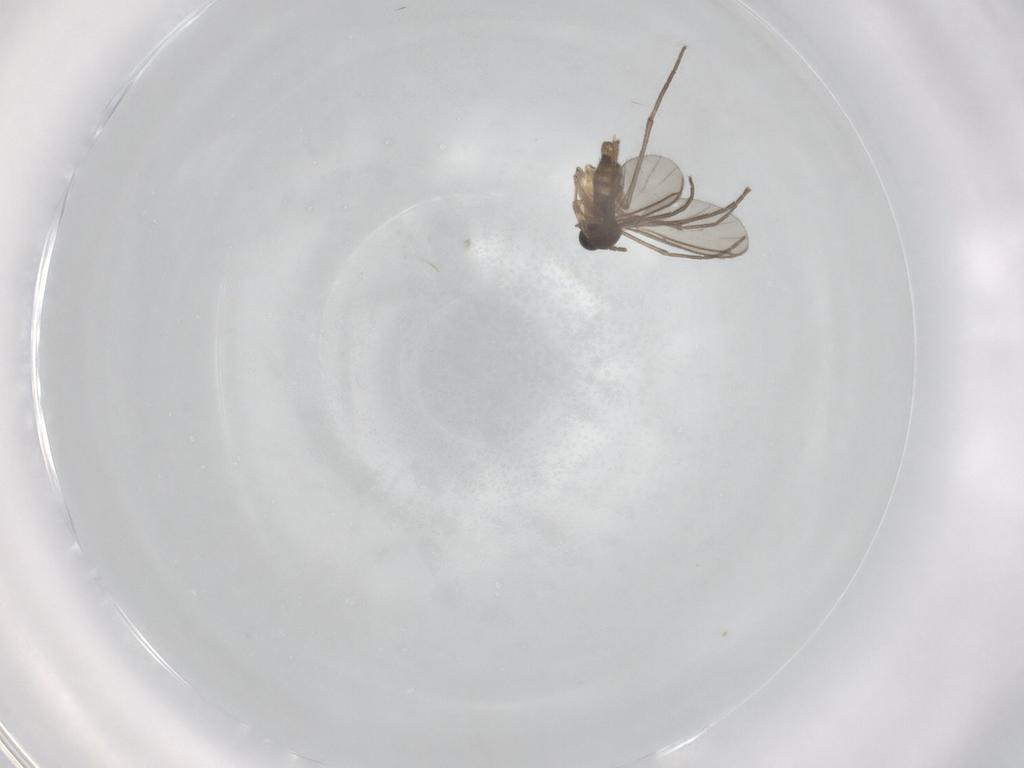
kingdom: Animalia
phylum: Arthropoda
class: Insecta
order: Diptera
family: Sciaridae
